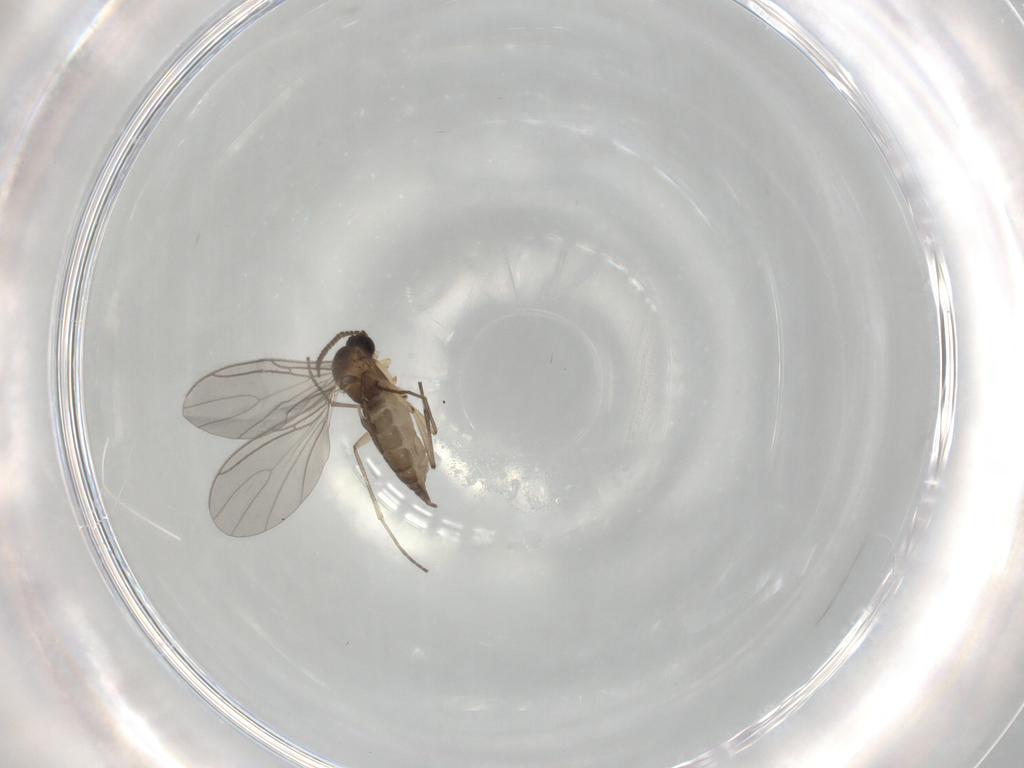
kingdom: Animalia
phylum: Arthropoda
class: Insecta
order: Diptera
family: Sciaridae
